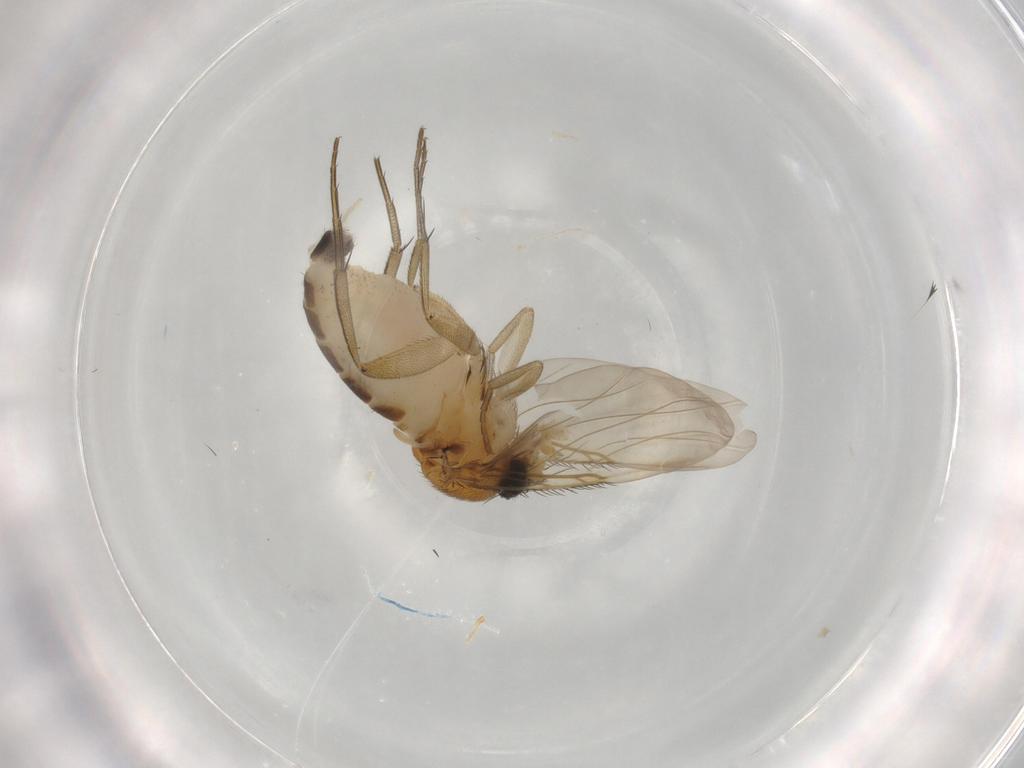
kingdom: Animalia
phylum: Arthropoda
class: Insecta
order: Diptera
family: Phoridae
